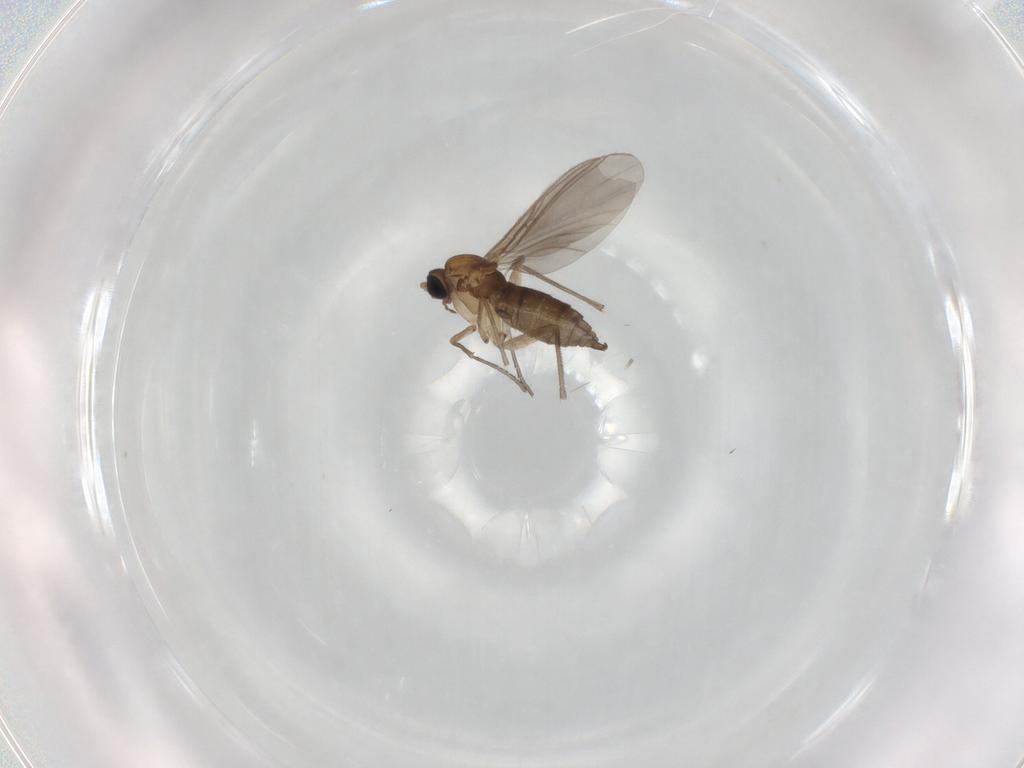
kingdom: Animalia
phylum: Arthropoda
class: Insecta
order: Diptera
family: Sciaridae
